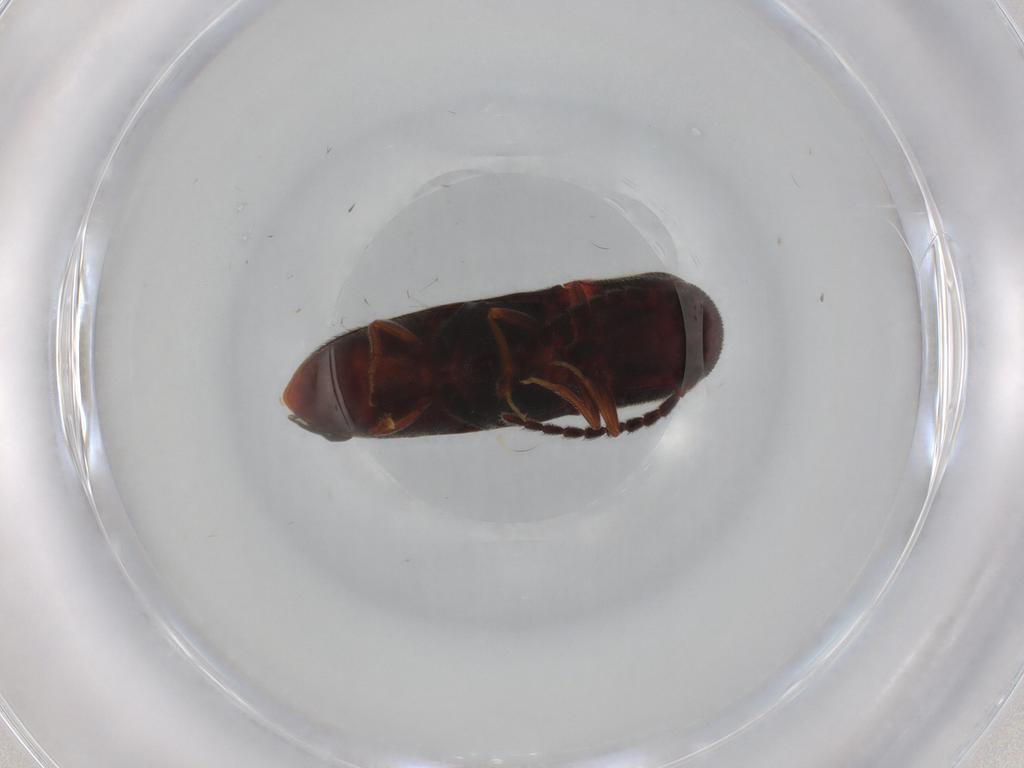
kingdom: Animalia
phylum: Arthropoda
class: Insecta
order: Coleoptera
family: Eucnemidae
